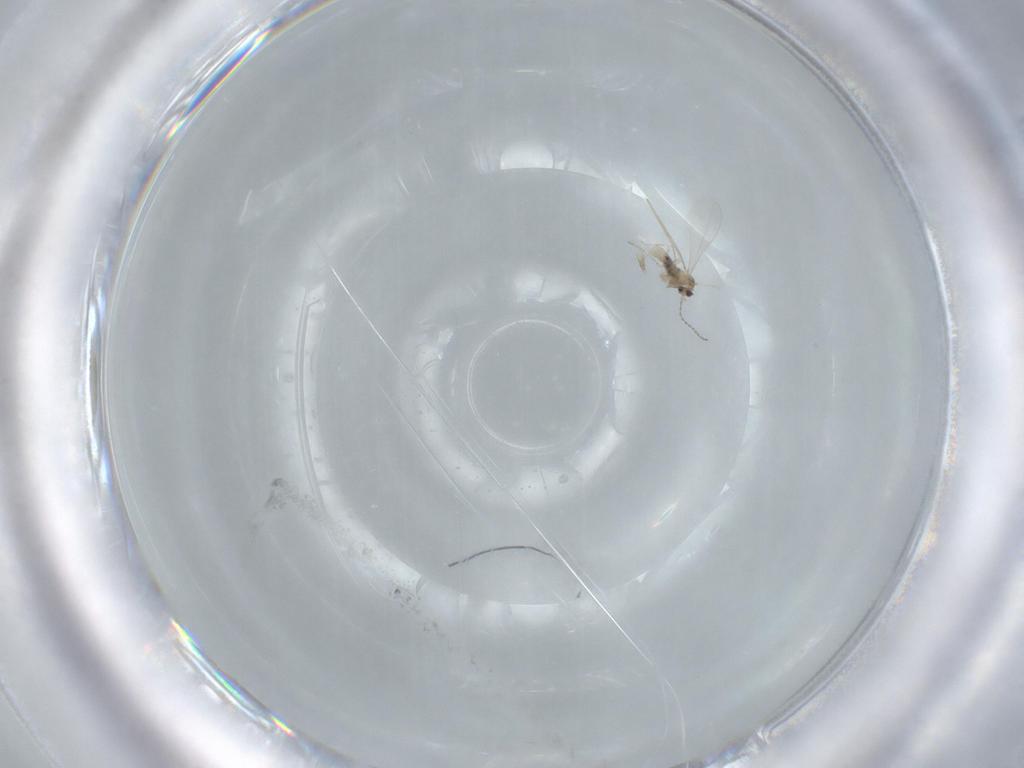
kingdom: Animalia
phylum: Arthropoda
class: Insecta
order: Diptera
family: Cecidomyiidae
